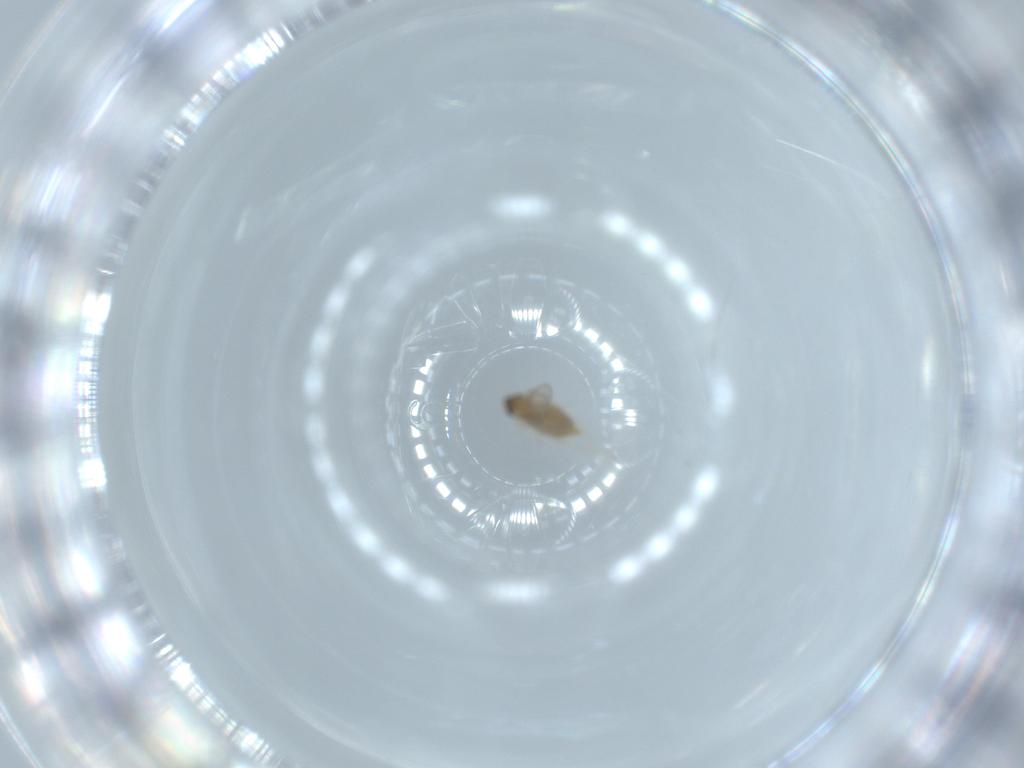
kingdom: Animalia
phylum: Arthropoda
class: Insecta
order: Diptera
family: Cecidomyiidae
